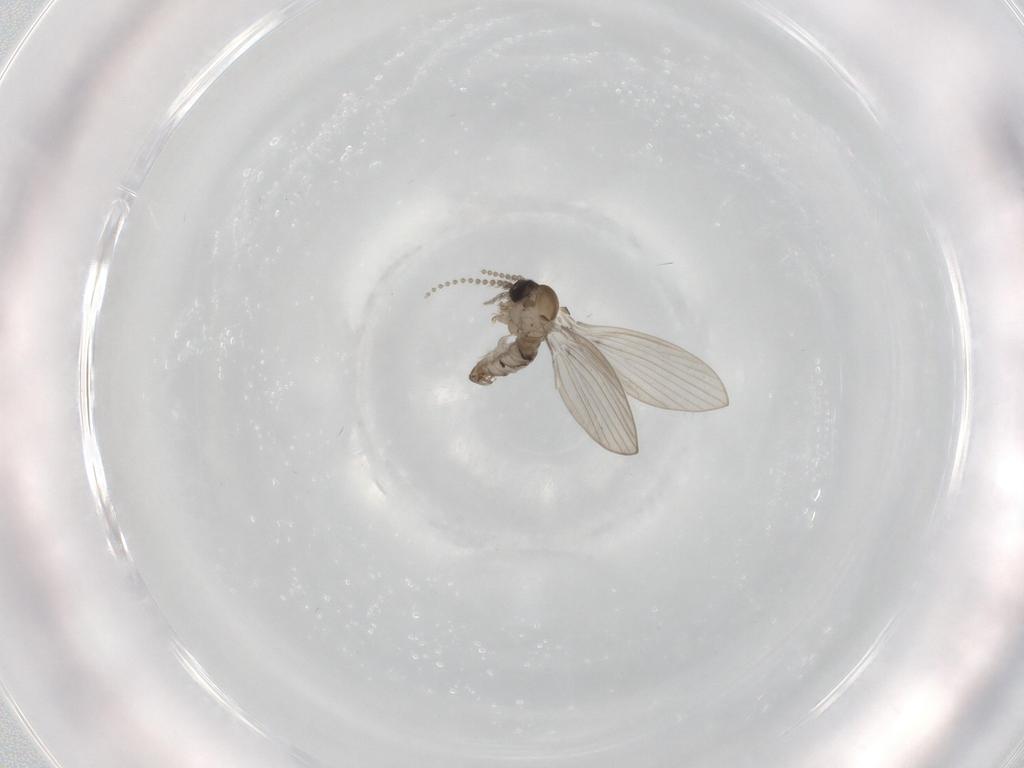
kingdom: Animalia
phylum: Arthropoda
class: Insecta
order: Diptera
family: Psychodidae
